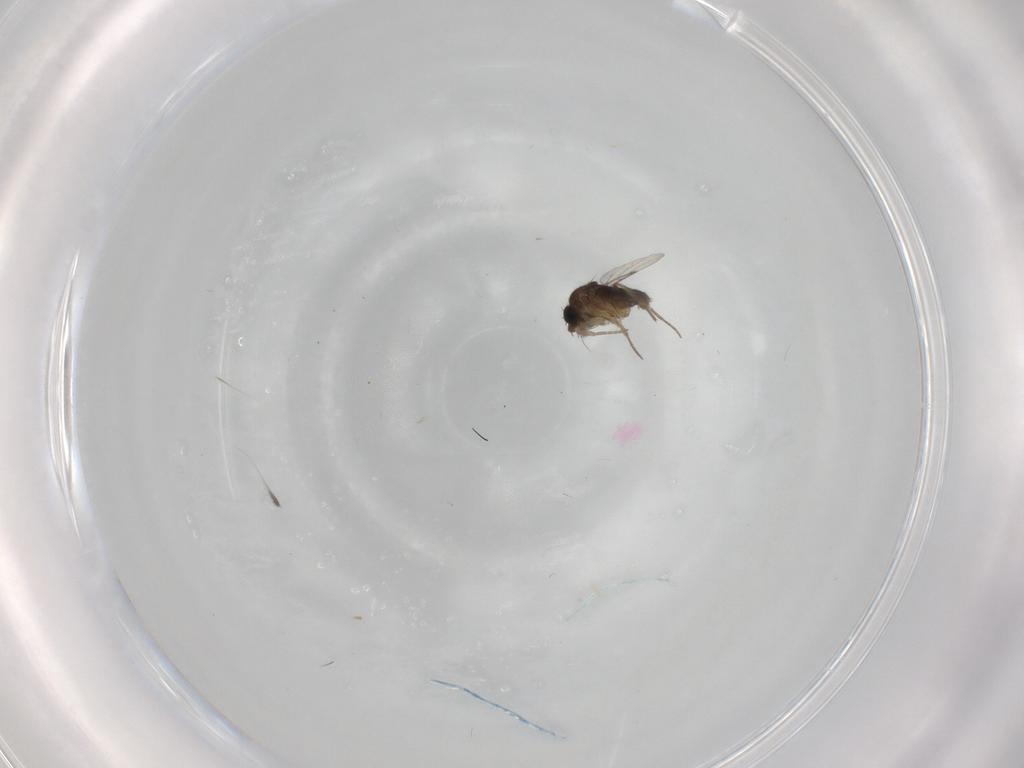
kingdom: Animalia
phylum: Arthropoda
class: Insecta
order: Diptera
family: Phoridae
